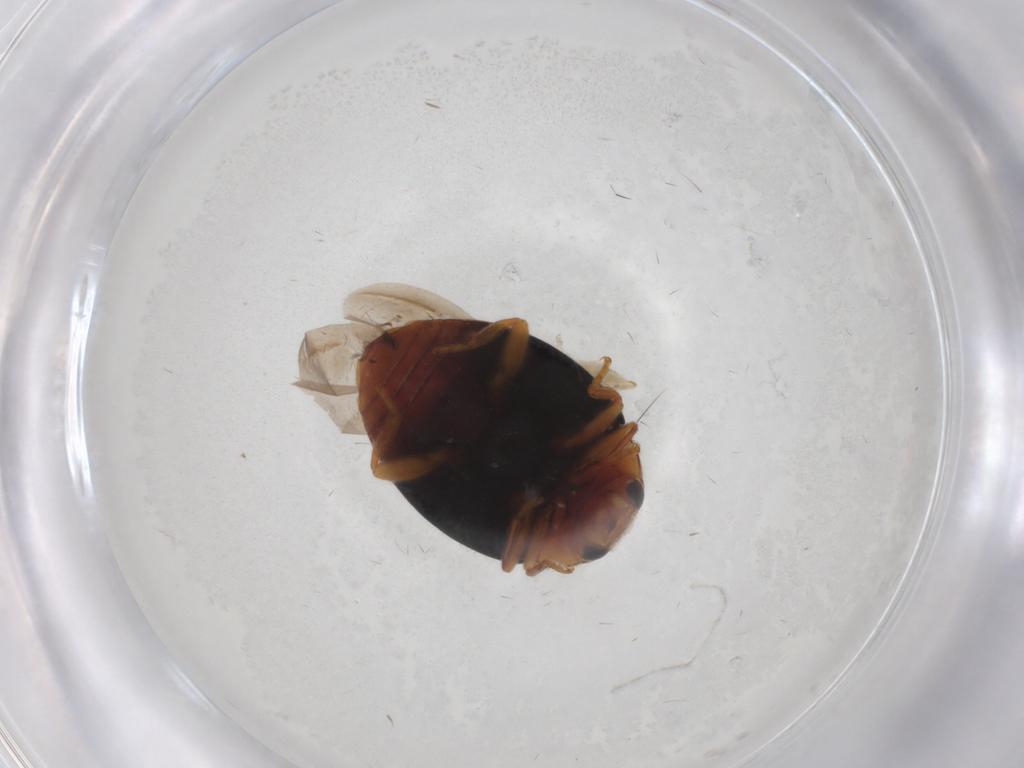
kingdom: Animalia
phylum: Arthropoda
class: Insecta
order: Coleoptera
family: Coccinellidae
